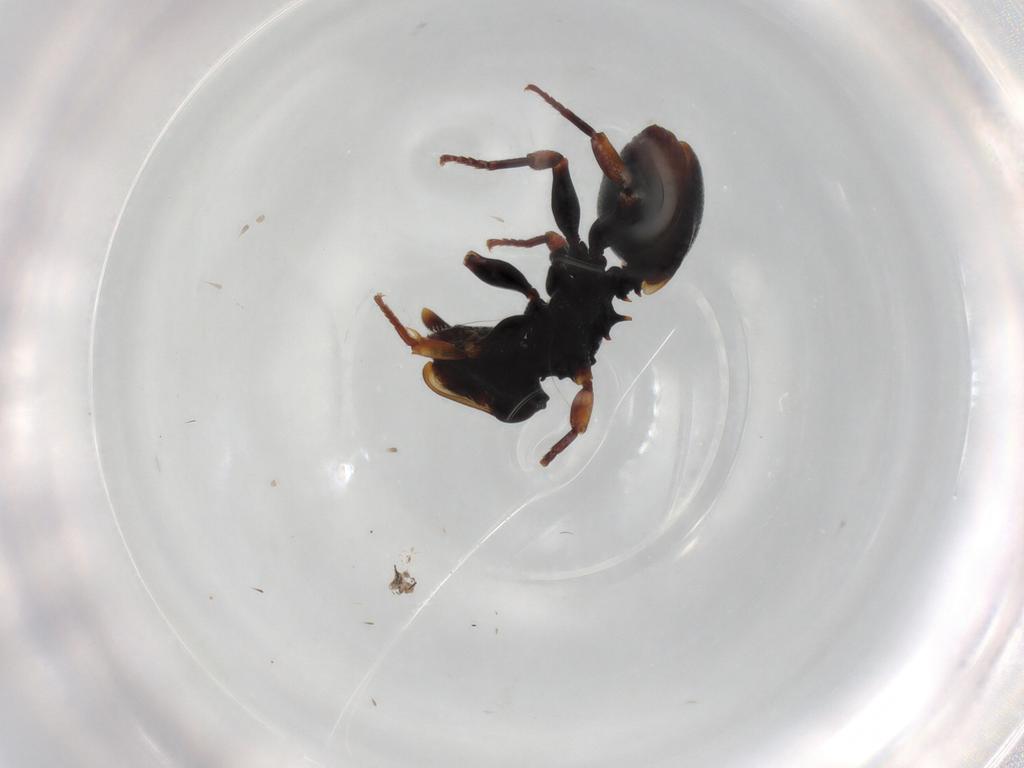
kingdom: Animalia
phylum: Arthropoda
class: Insecta
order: Hymenoptera
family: Formicidae
